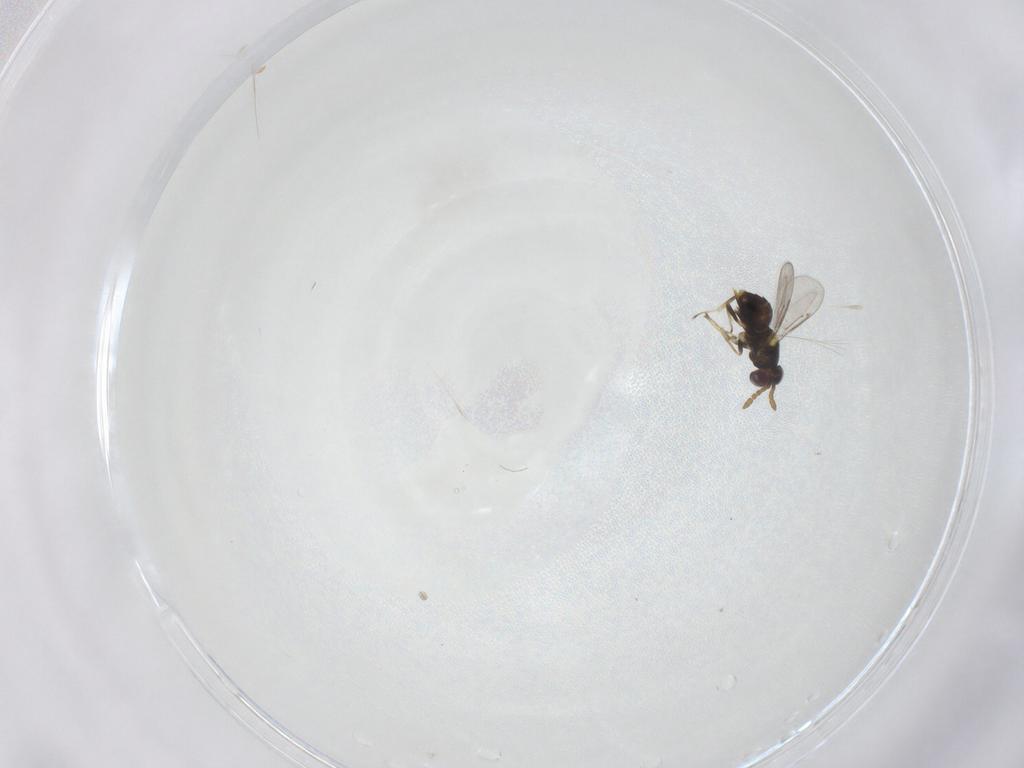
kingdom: Animalia
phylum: Arthropoda
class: Insecta
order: Hymenoptera
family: Aphelinidae
